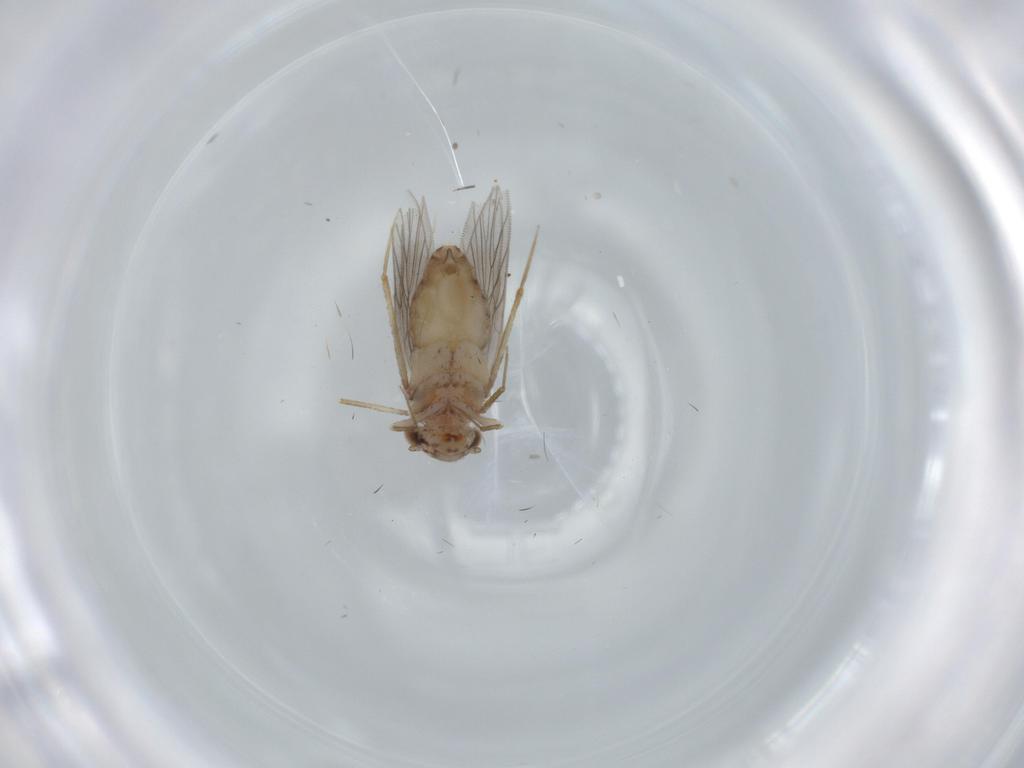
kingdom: Animalia
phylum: Arthropoda
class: Insecta
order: Psocodea
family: Lepidopsocidae
